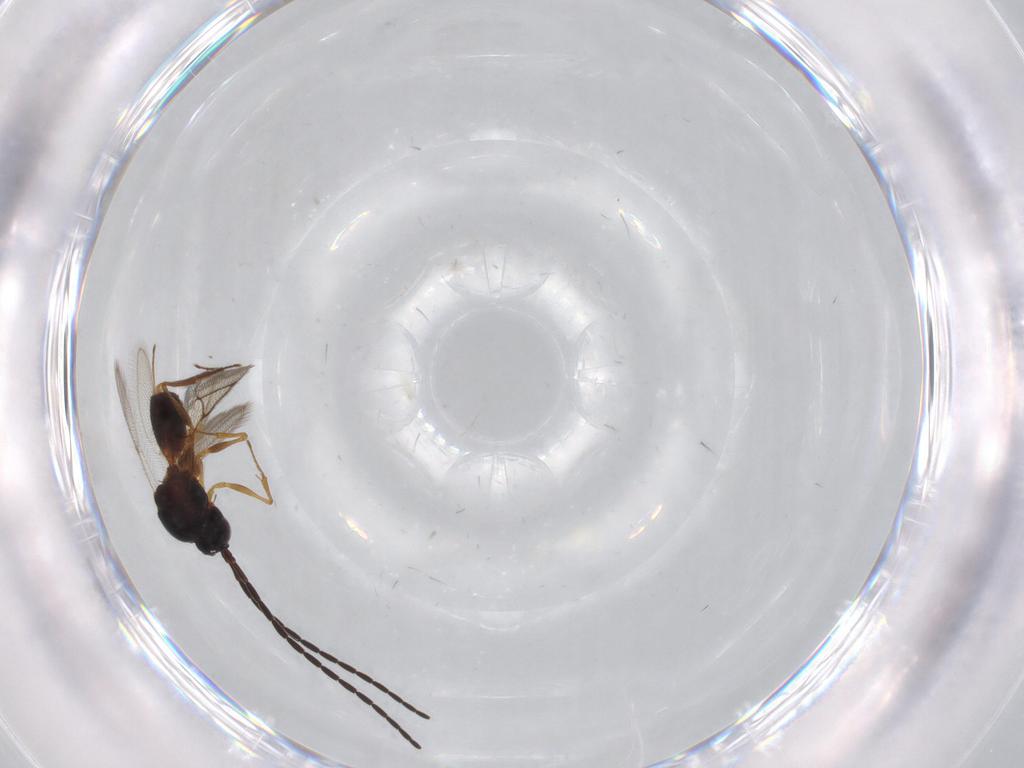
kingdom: Animalia
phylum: Arthropoda
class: Insecta
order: Hymenoptera
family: Figitidae
